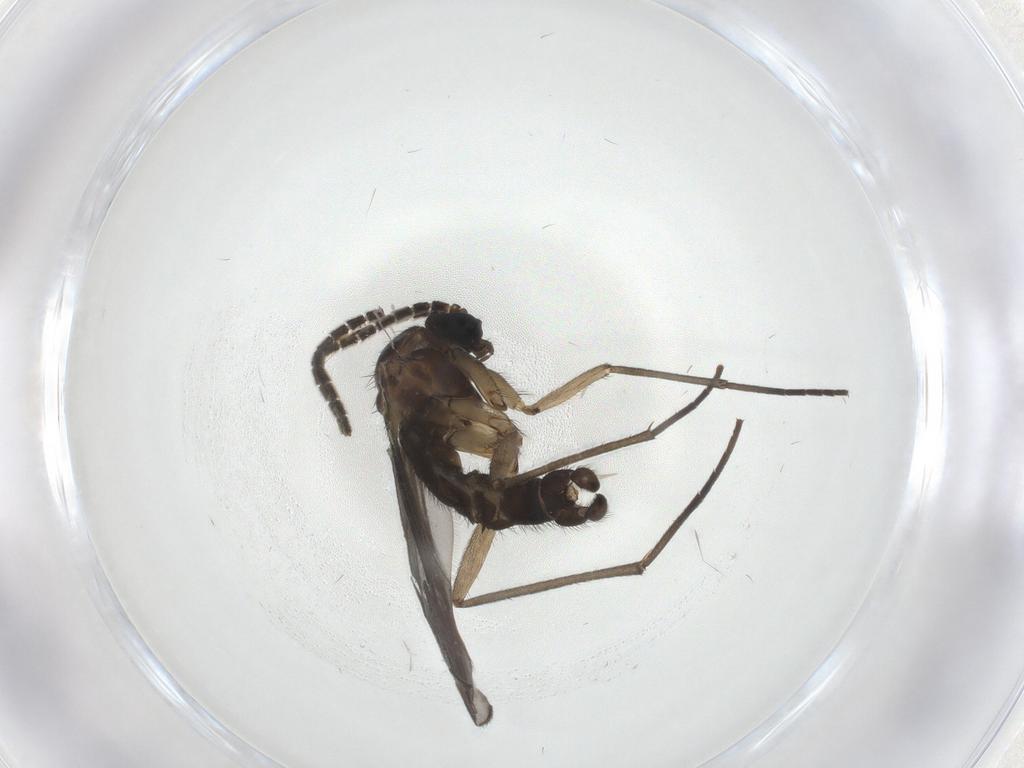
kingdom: Animalia
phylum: Arthropoda
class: Insecta
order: Diptera
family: Sciaridae
